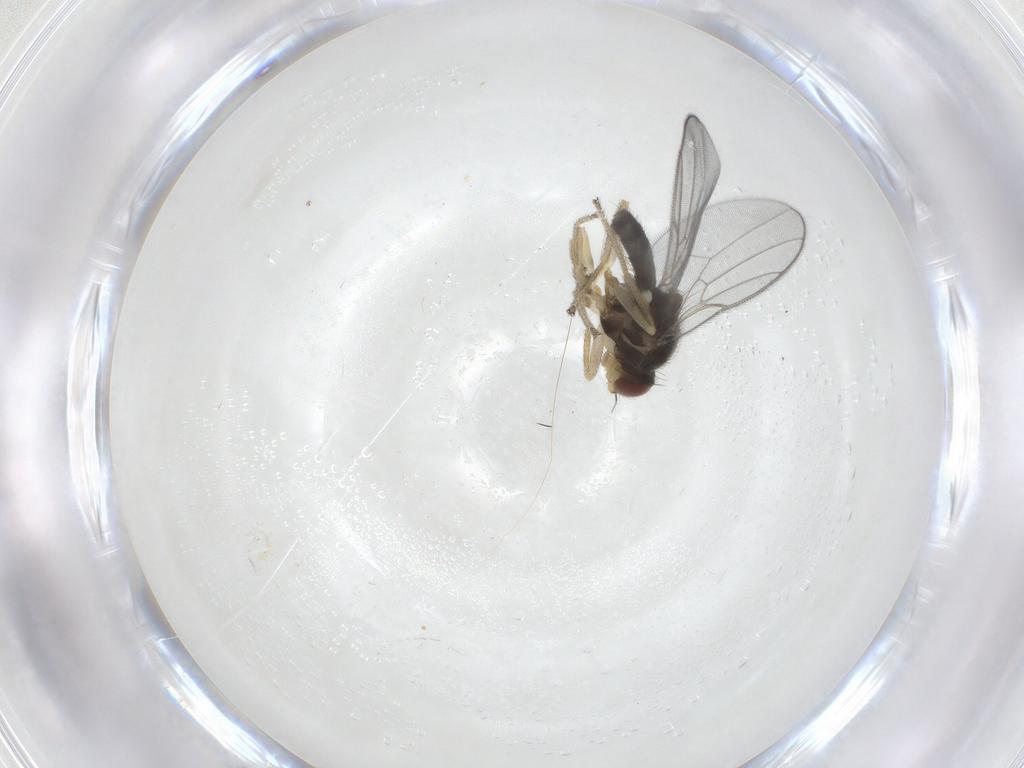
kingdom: Animalia
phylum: Arthropoda
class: Insecta
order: Diptera
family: Chloropidae
